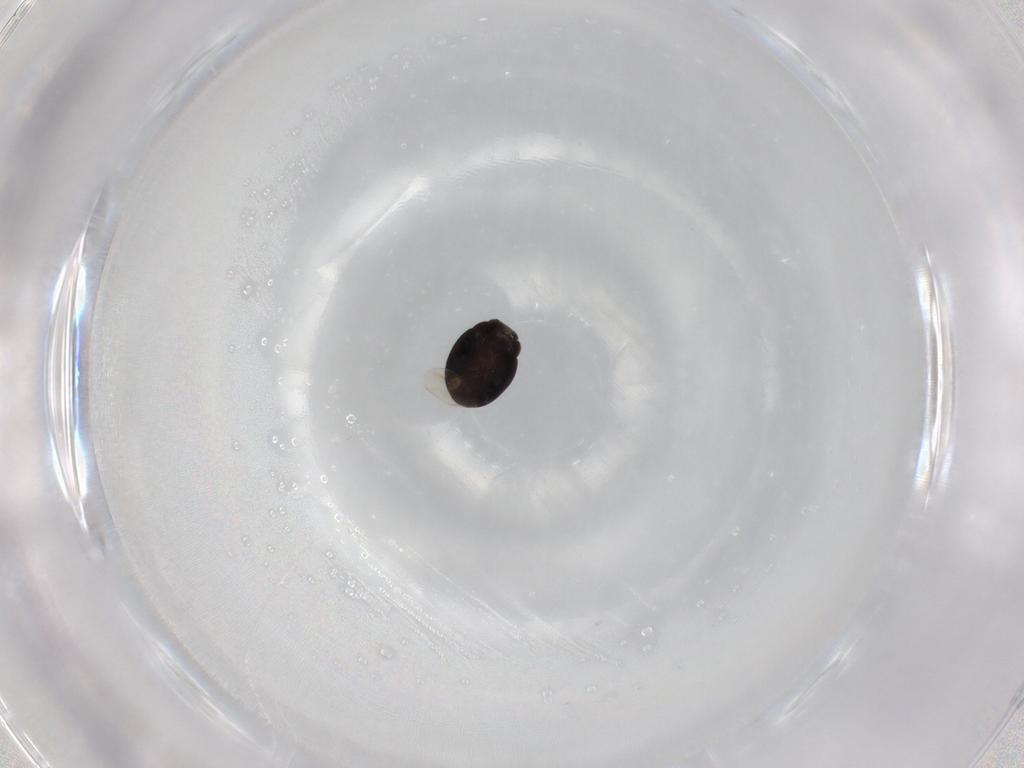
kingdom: Animalia
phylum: Arthropoda
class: Insecta
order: Coleoptera
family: Coccinellidae
